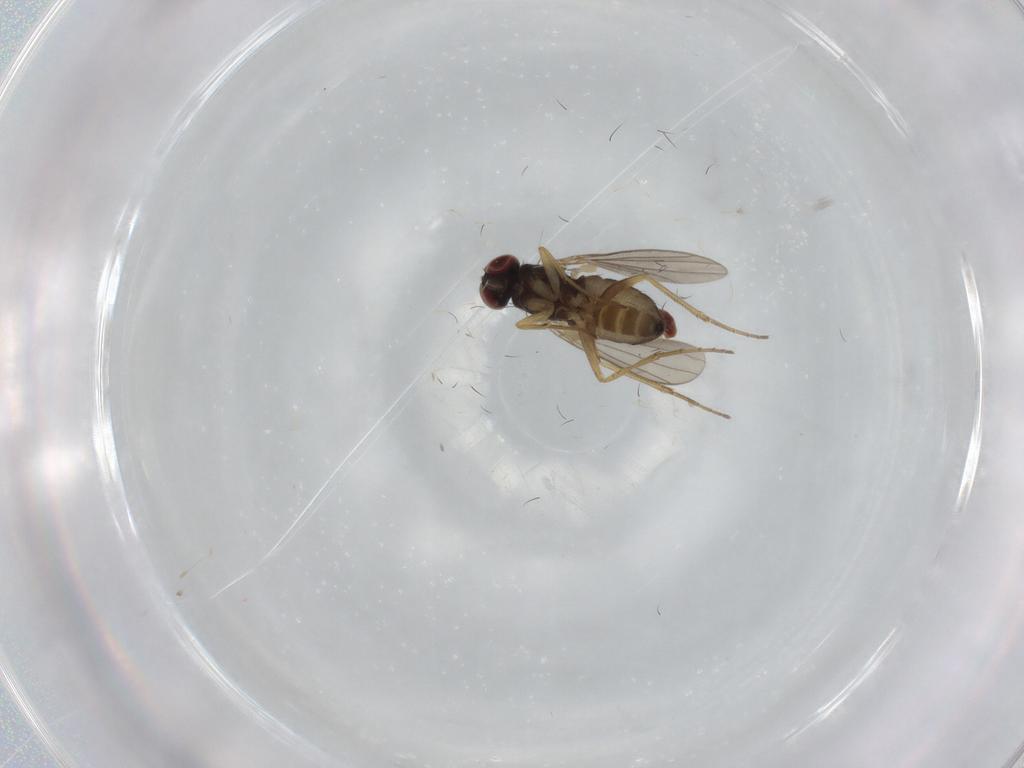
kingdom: Animalia
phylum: Arthropoda
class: Insecta
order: Diptera
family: Dolichopodidae
